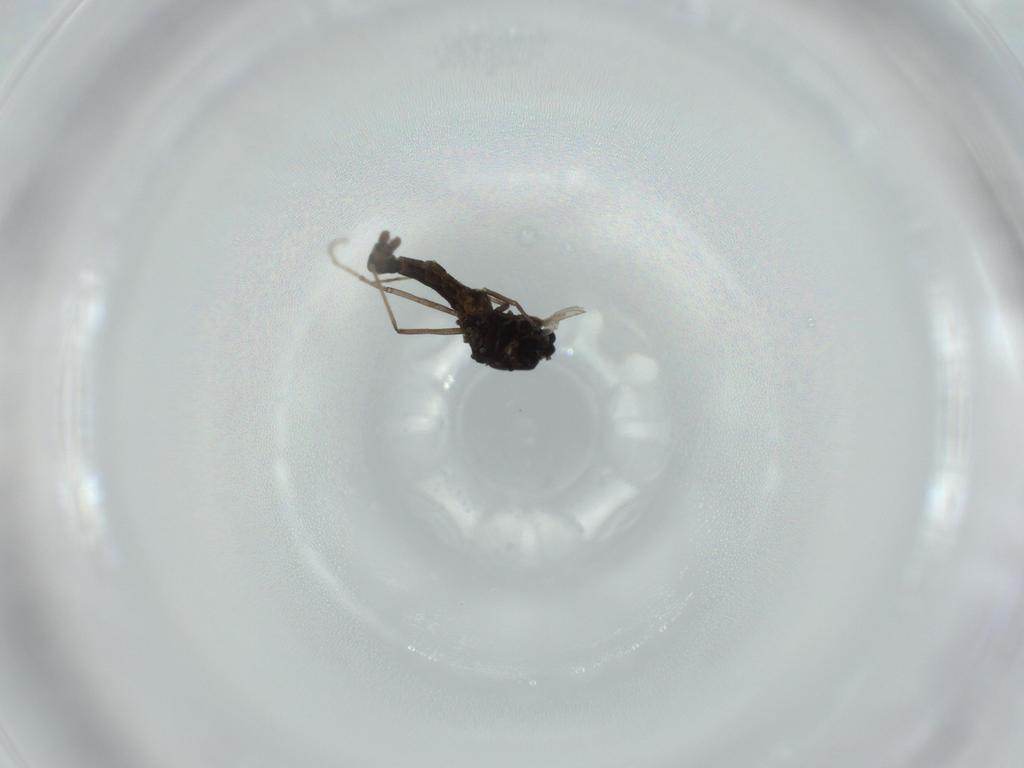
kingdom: Animalia
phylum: Arthropoda
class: Insecta
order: Diptera
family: Chironomidae
